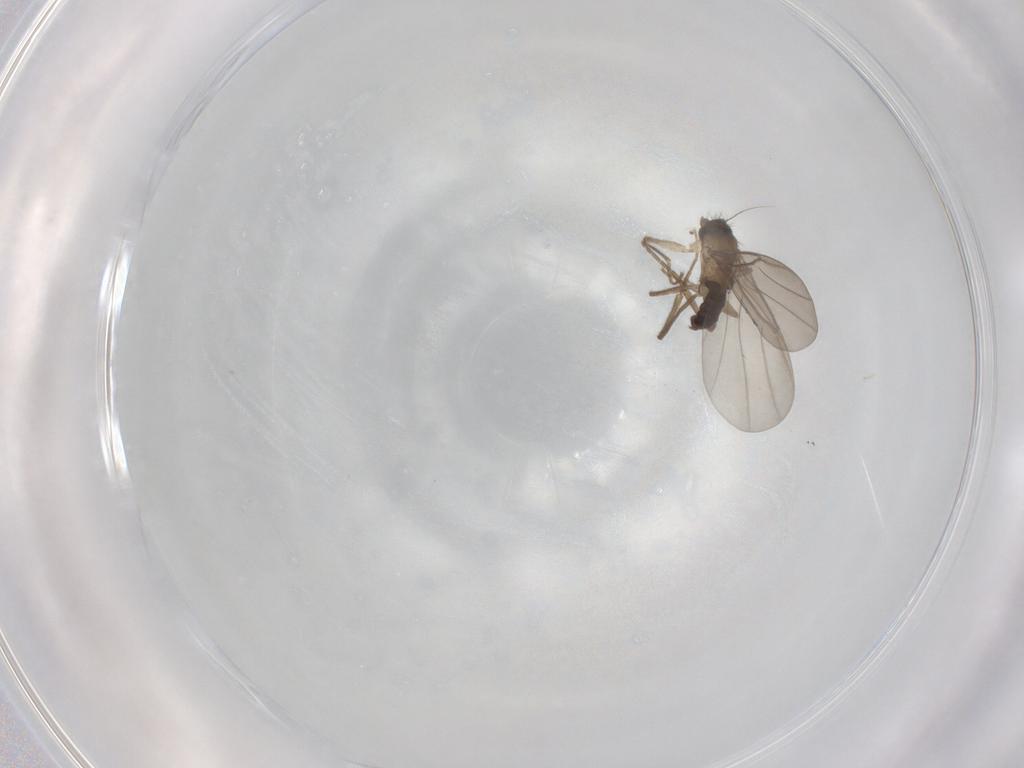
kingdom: Animalia
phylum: Arthropoda
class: Insecta
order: Diptera
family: Phoridae
